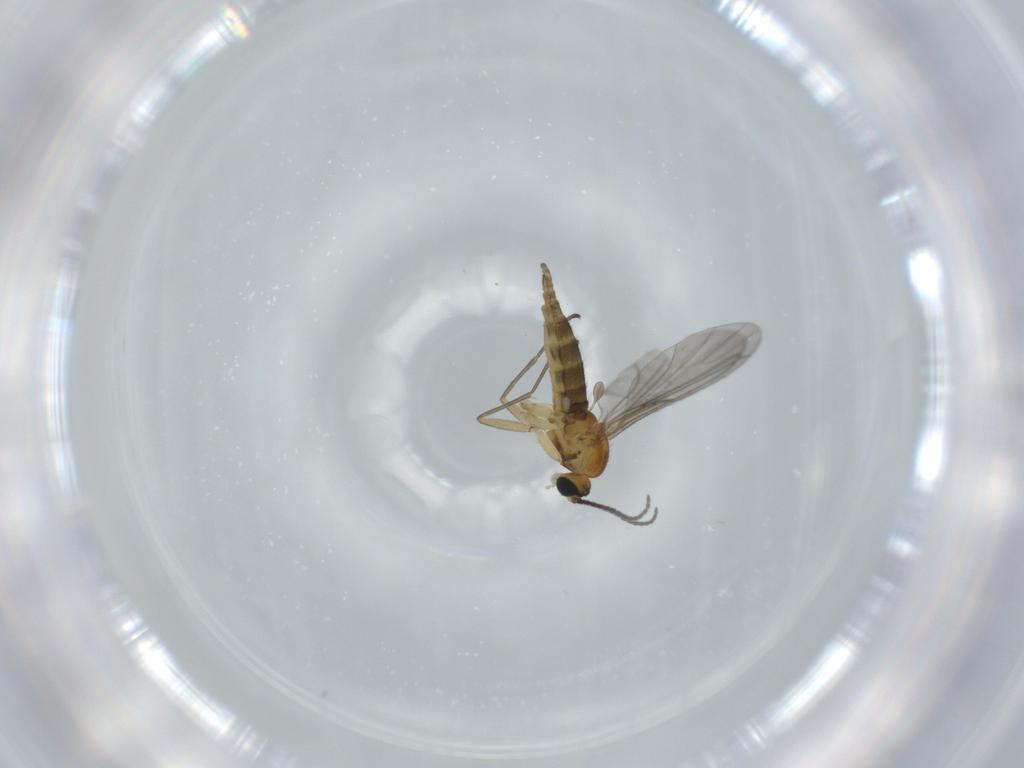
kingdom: Animalia
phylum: Arthropoda
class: Insecta
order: Diptera
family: Sciaridae
